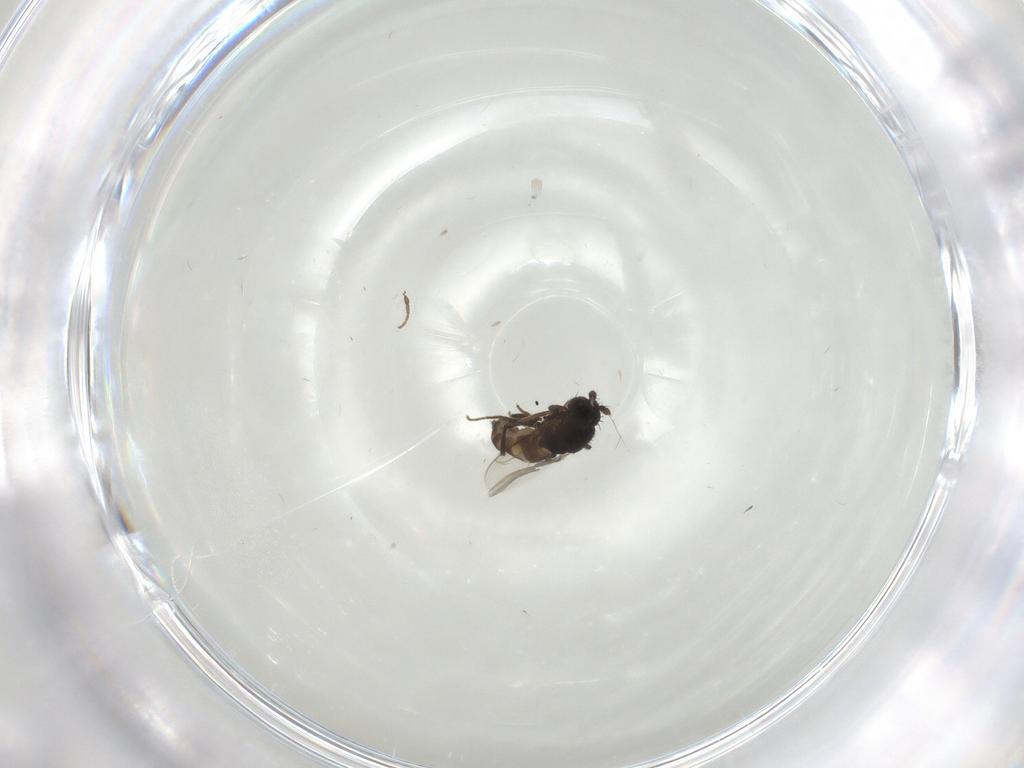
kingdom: Animalia
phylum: Arthropoda
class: Insecta
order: Diptera
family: Sphaeroceridae
